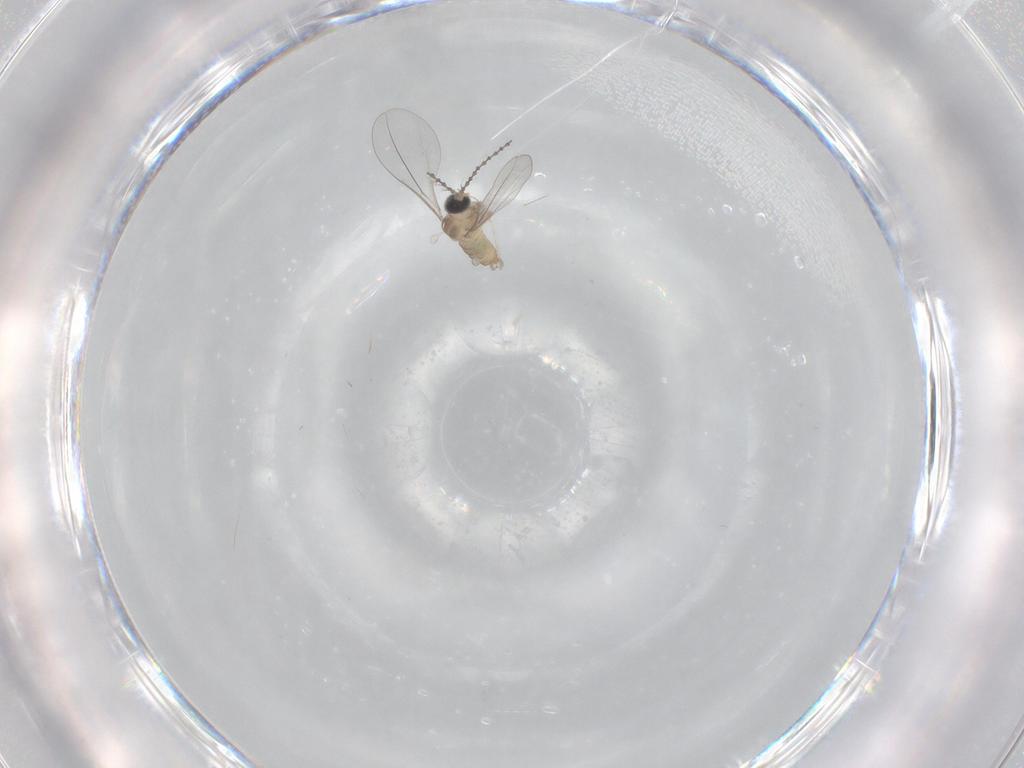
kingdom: Animalia
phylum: Arthropoda
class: Insecta
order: Diptera
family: Cecidomyiidae
